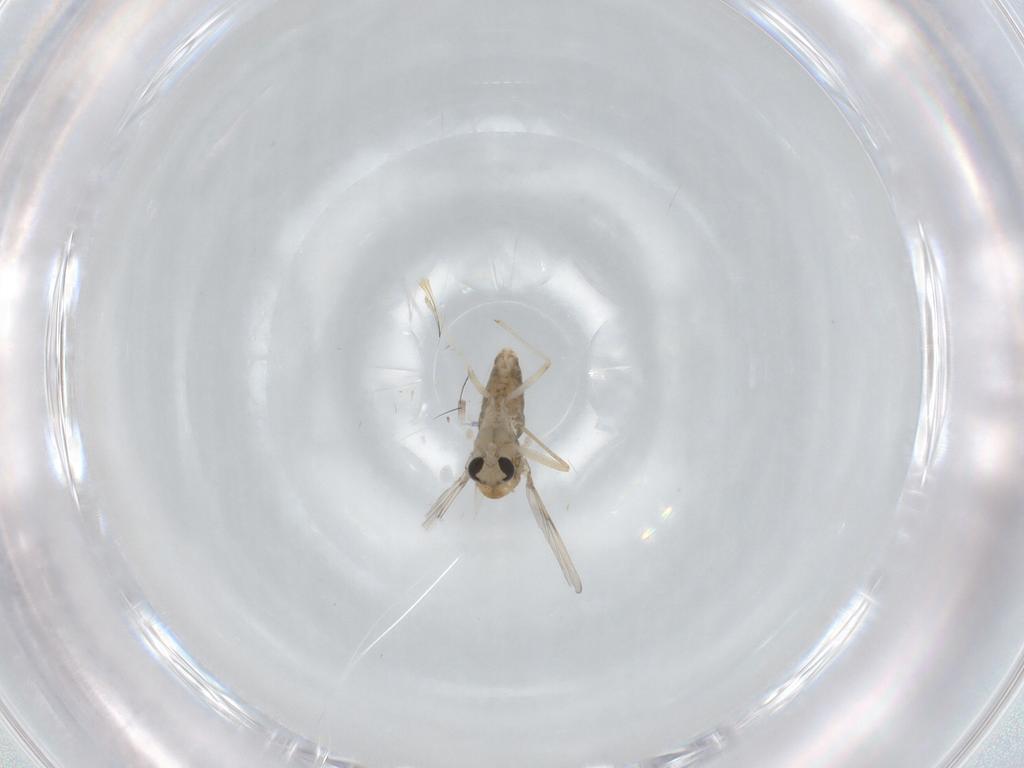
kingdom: Animalia
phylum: Arthropoda
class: Insecta
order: Diptera
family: Chironomidae
